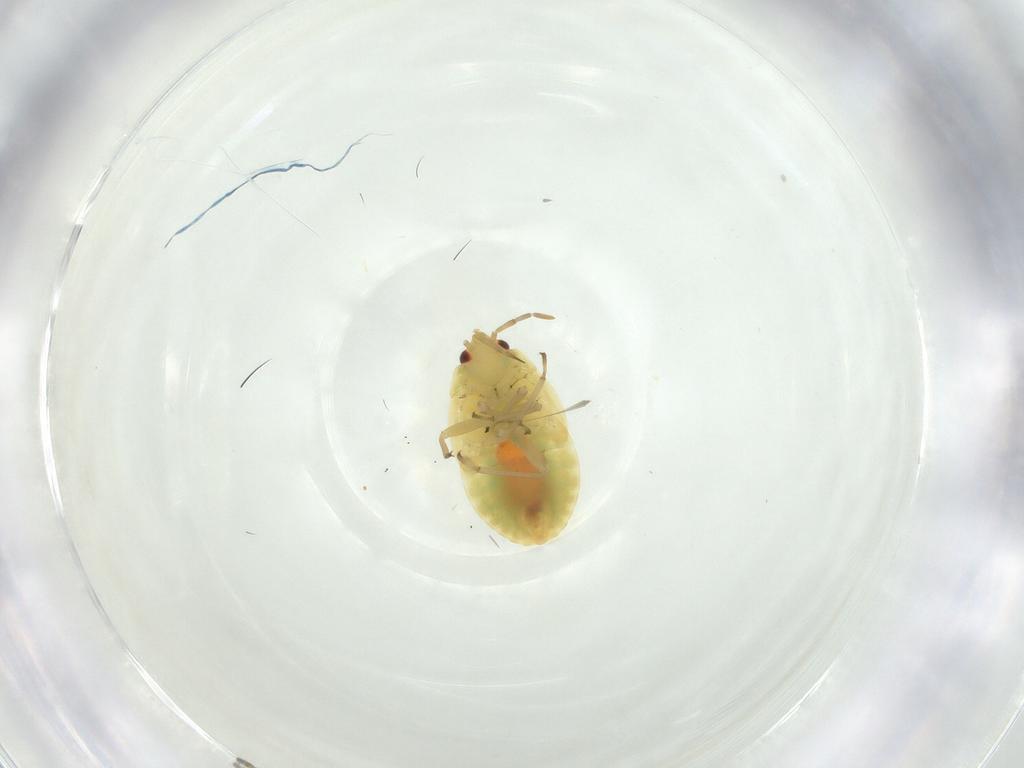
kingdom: Animalia
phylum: Arthropoda
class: Insecta
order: Hemiptera
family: Anthocoridae
